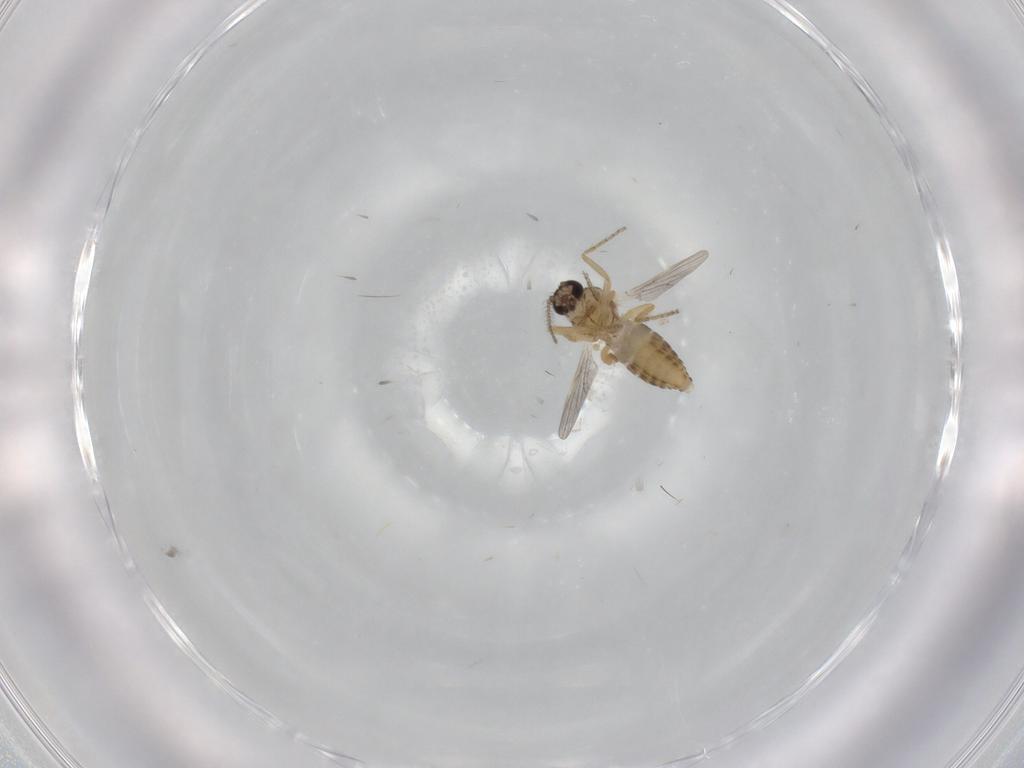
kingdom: Animalia
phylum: Arthropoda
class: Insecta
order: Diptera
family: Ceratopogonidae
